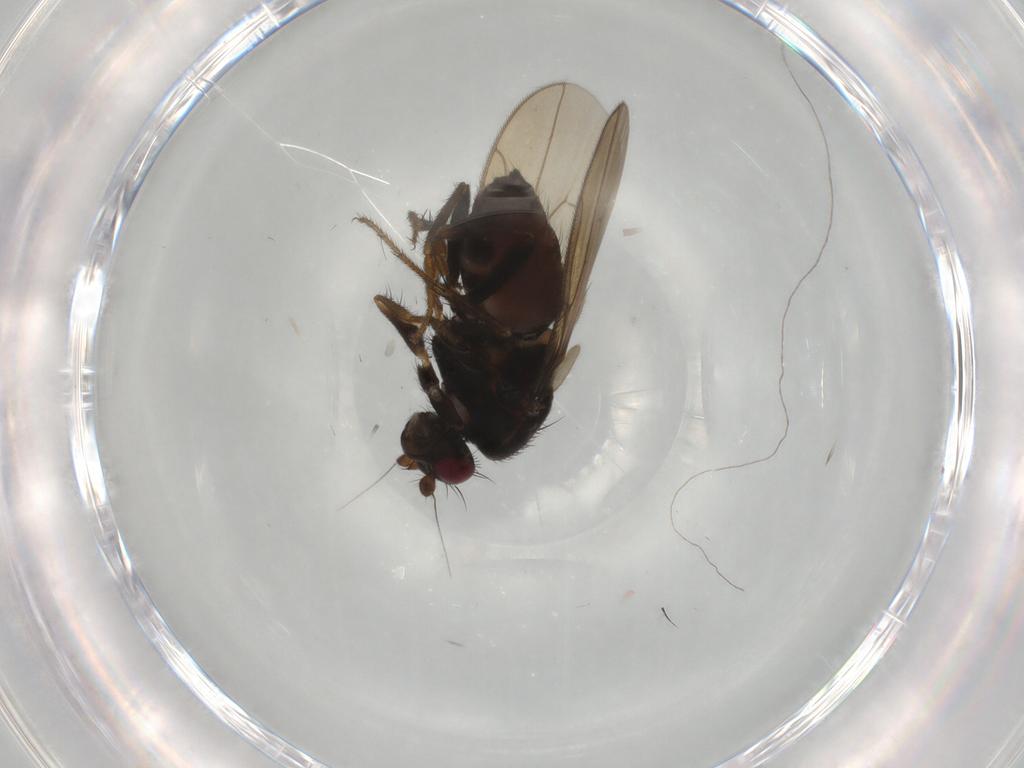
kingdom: Animalia
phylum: Arthropoda
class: Insecta
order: Diptera
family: Sphaeroceridae
